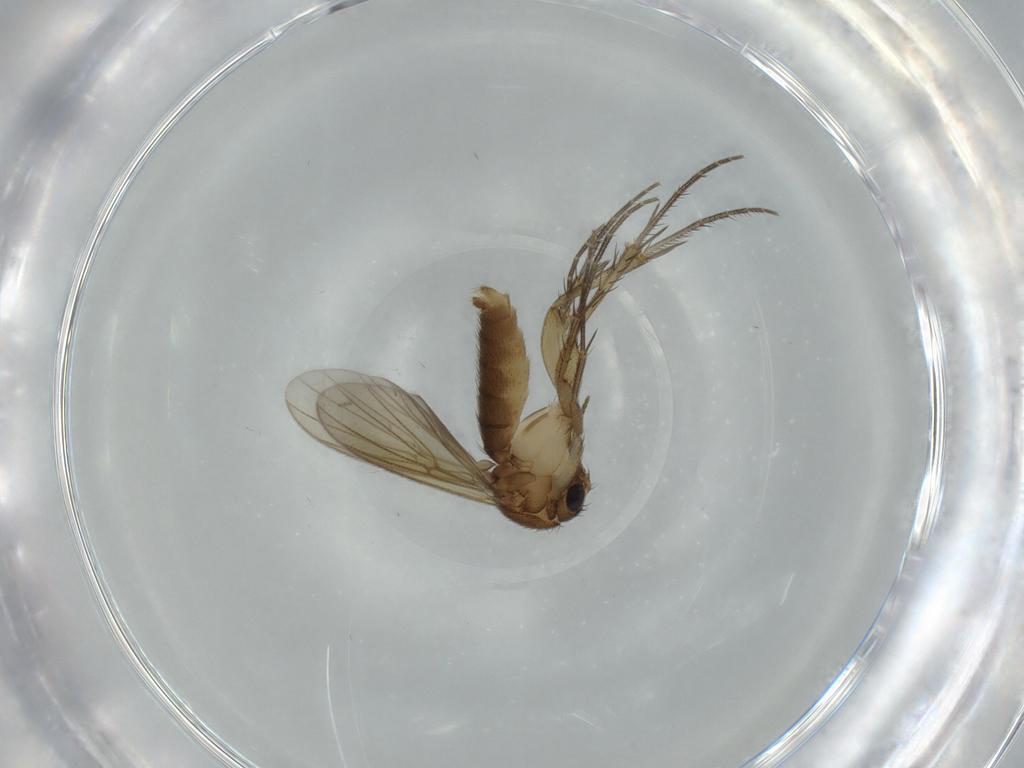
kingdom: Animalia
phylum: Arthropoda
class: Insecta
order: Diptera
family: Mycetophilidae
